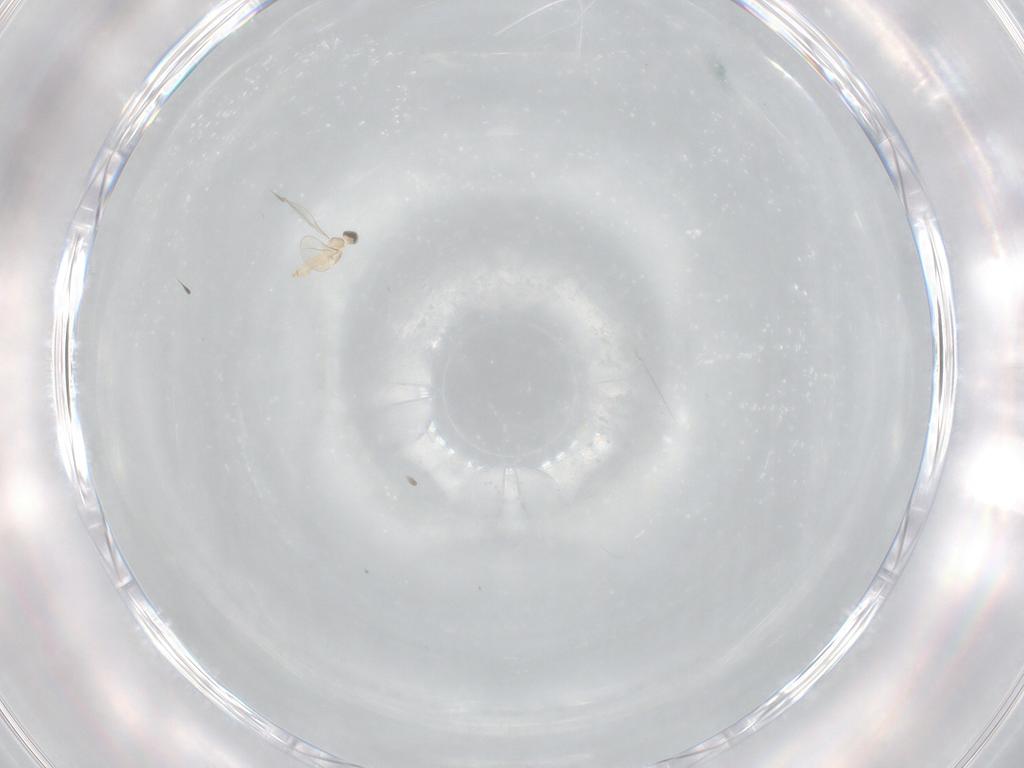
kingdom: Animalia
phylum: Arthropoda
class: Insecta
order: Diptera
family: Cecidomyiidae
